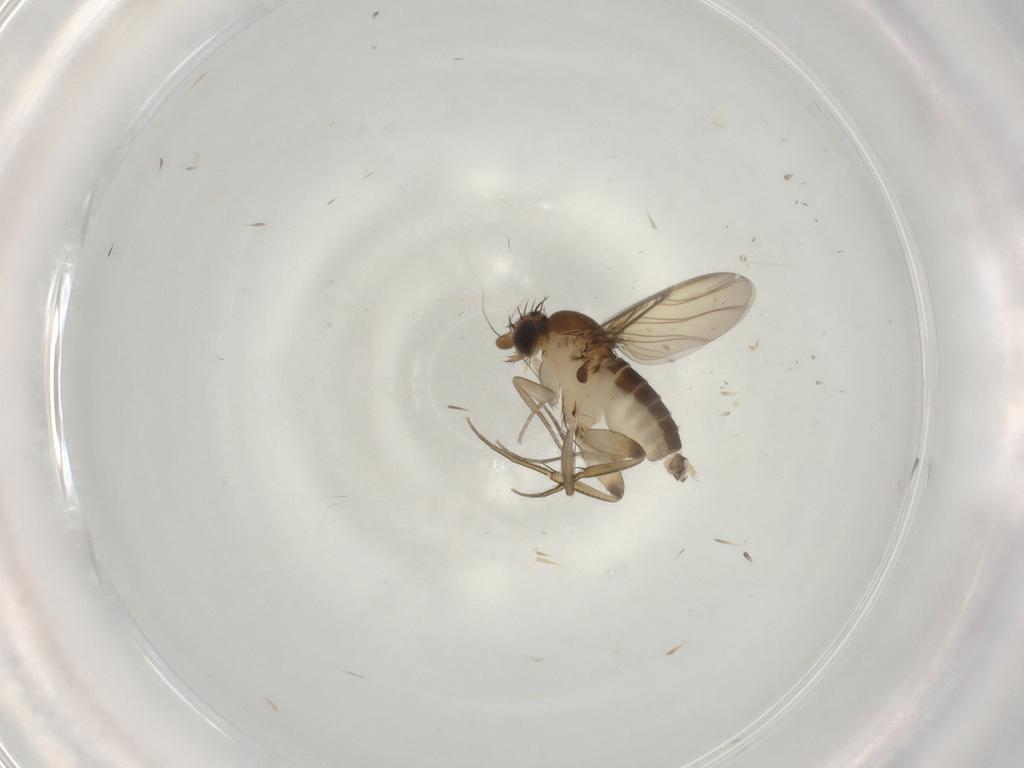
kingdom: Animalia
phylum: Arthropoda
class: Insecta
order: Diptera
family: Phoridae
